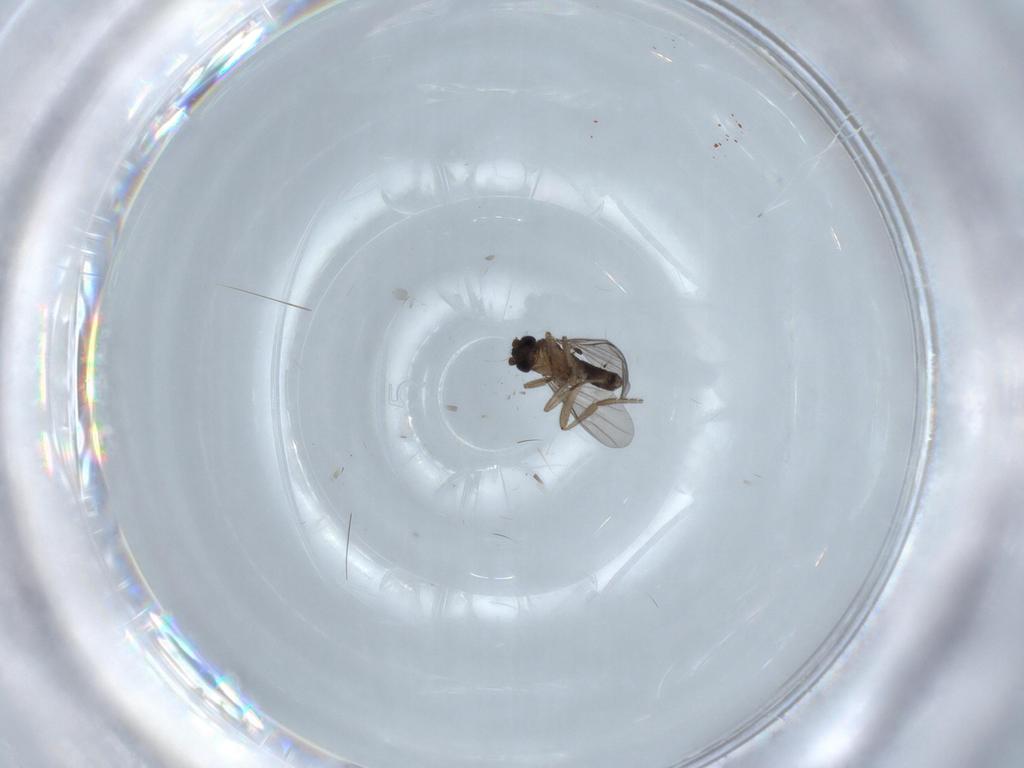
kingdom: Animalia
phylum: Arthropoda
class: Insecta
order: Diptera
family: Phoridae
